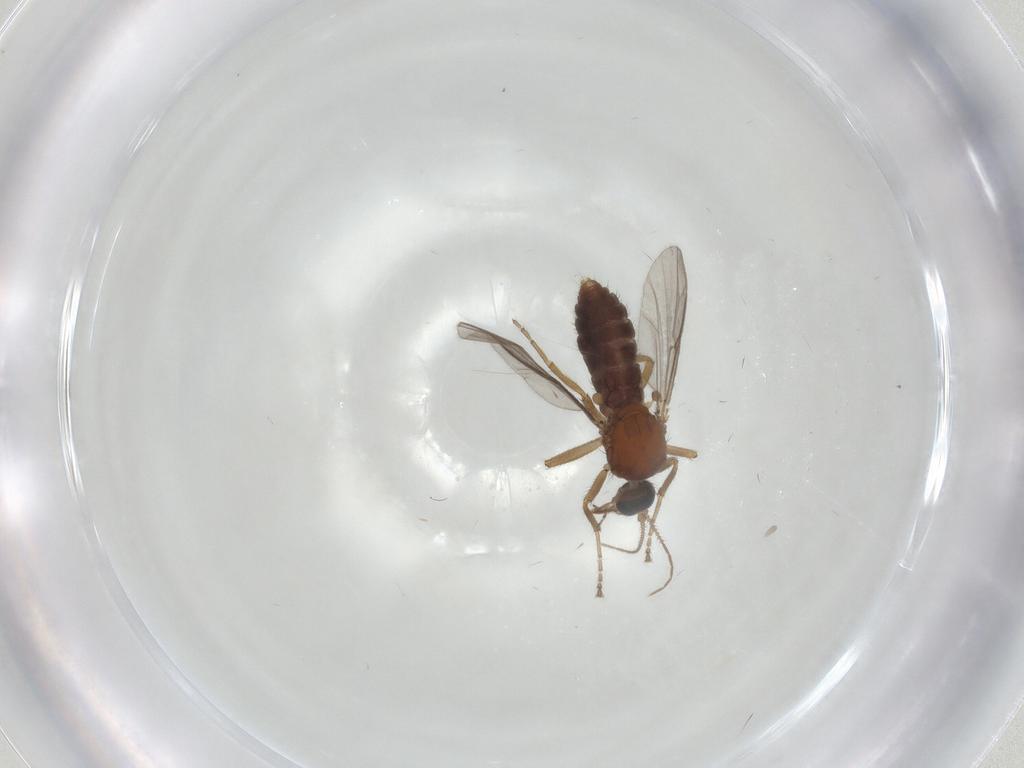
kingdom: Animalia
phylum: Arthropoda
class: Insecta
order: Diptera
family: Ceratopogonidae
